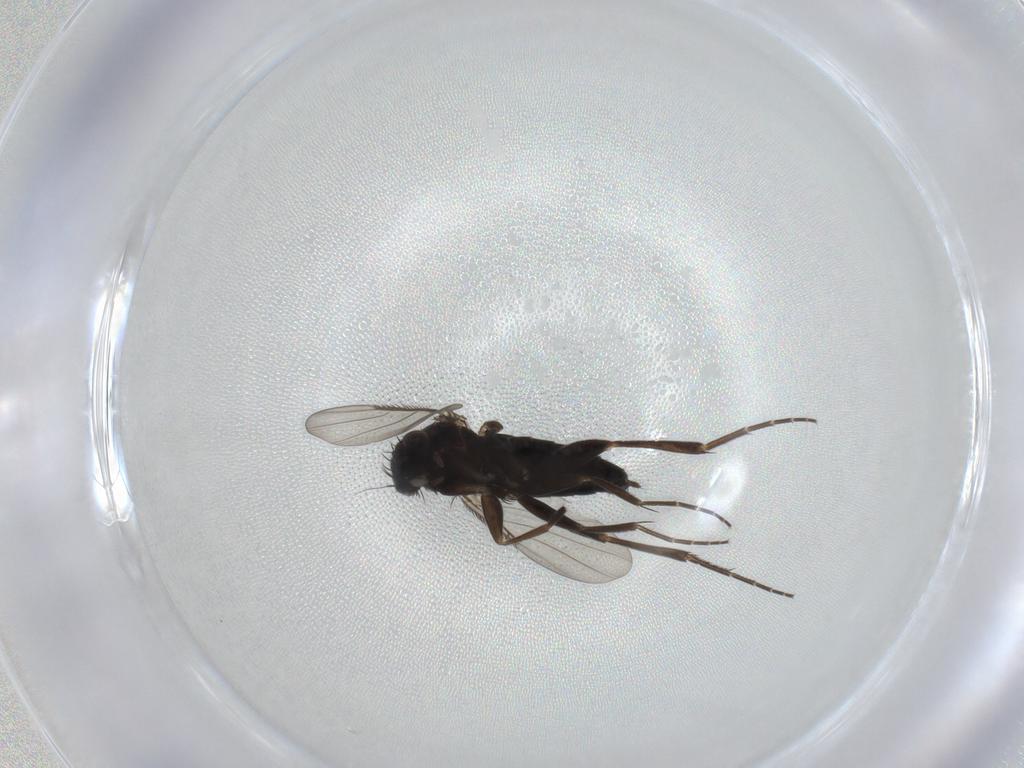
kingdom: Animalia
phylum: Arthropoda
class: Insecta
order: Diptera
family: Phoridae
